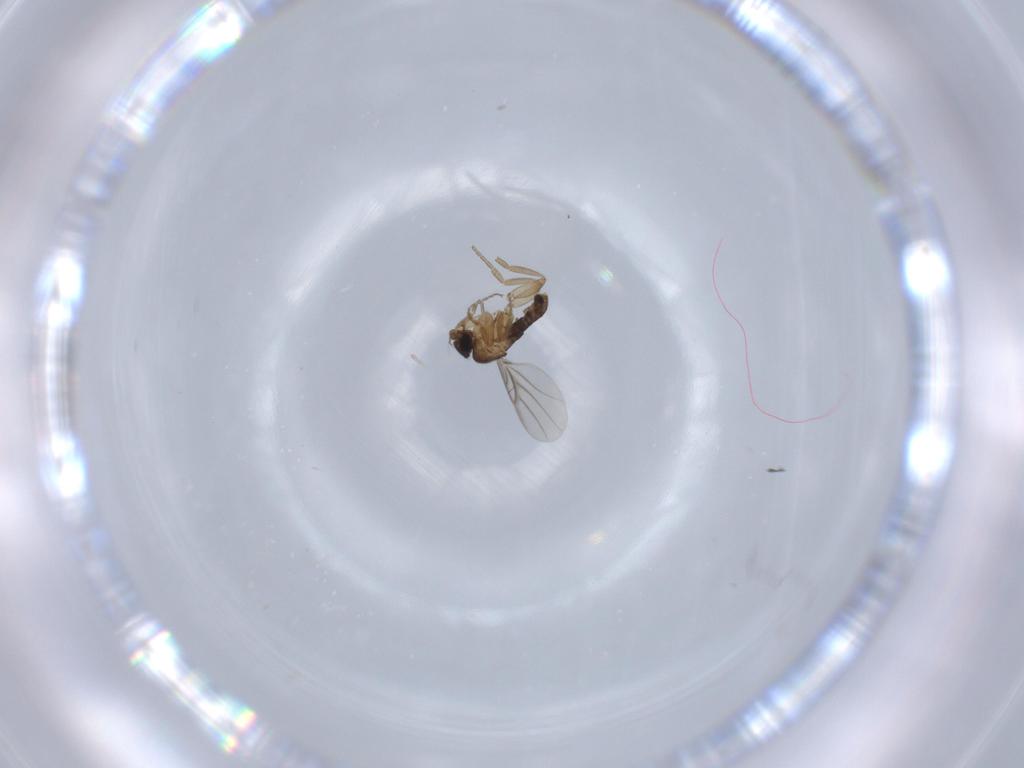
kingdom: Animalia
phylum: Arthropoda
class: Insecta
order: Diptera
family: Phoridae
